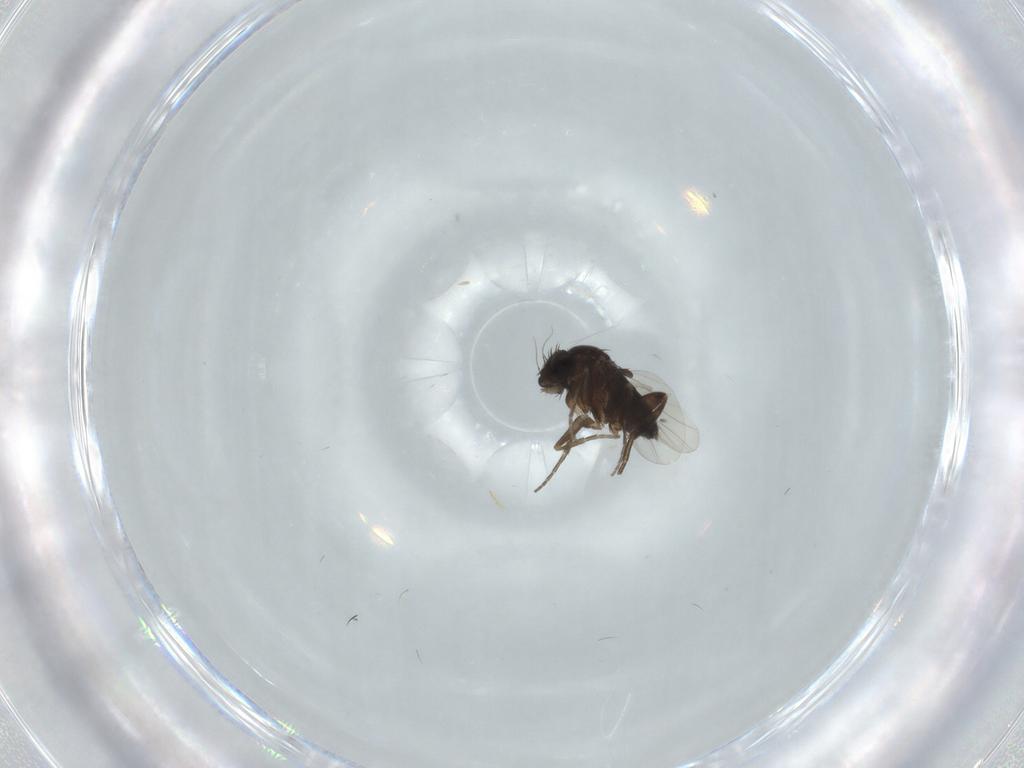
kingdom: Animalia
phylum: Arthropoda
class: Insecta
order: Diptera
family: Phoridae
